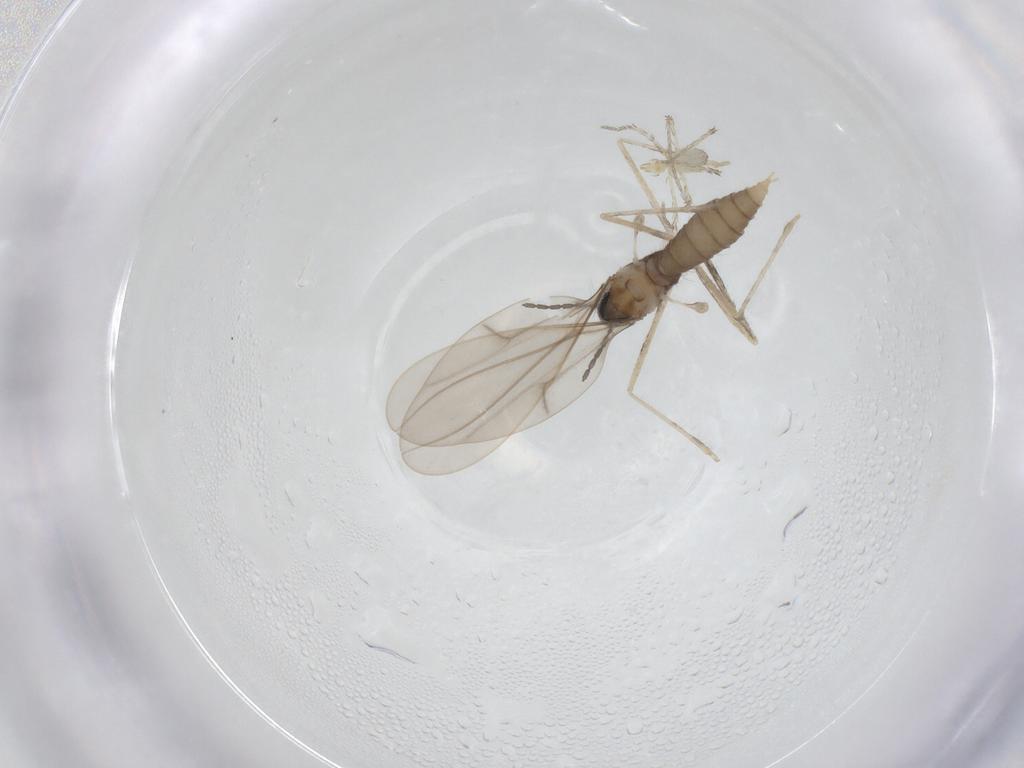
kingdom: Animalia
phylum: Arthropoda
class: Insecta
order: Diptera
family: Cecidomyiidae
